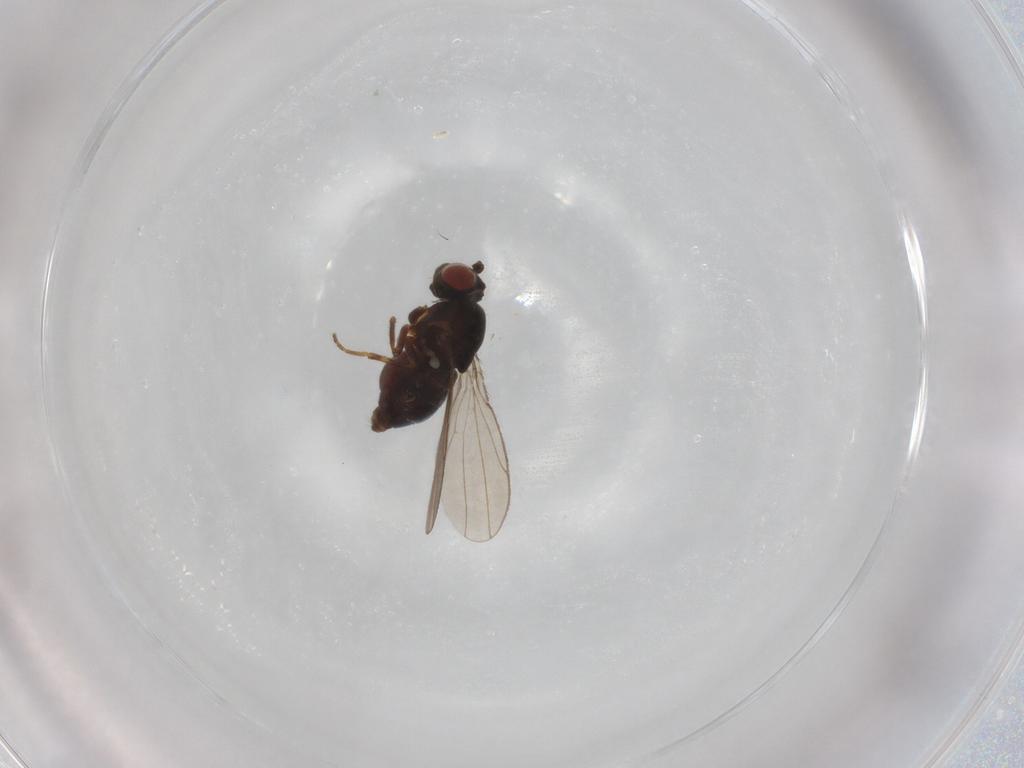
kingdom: Animalia
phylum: Arthropoda
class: Insecta
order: Diptera
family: Ephydridae
